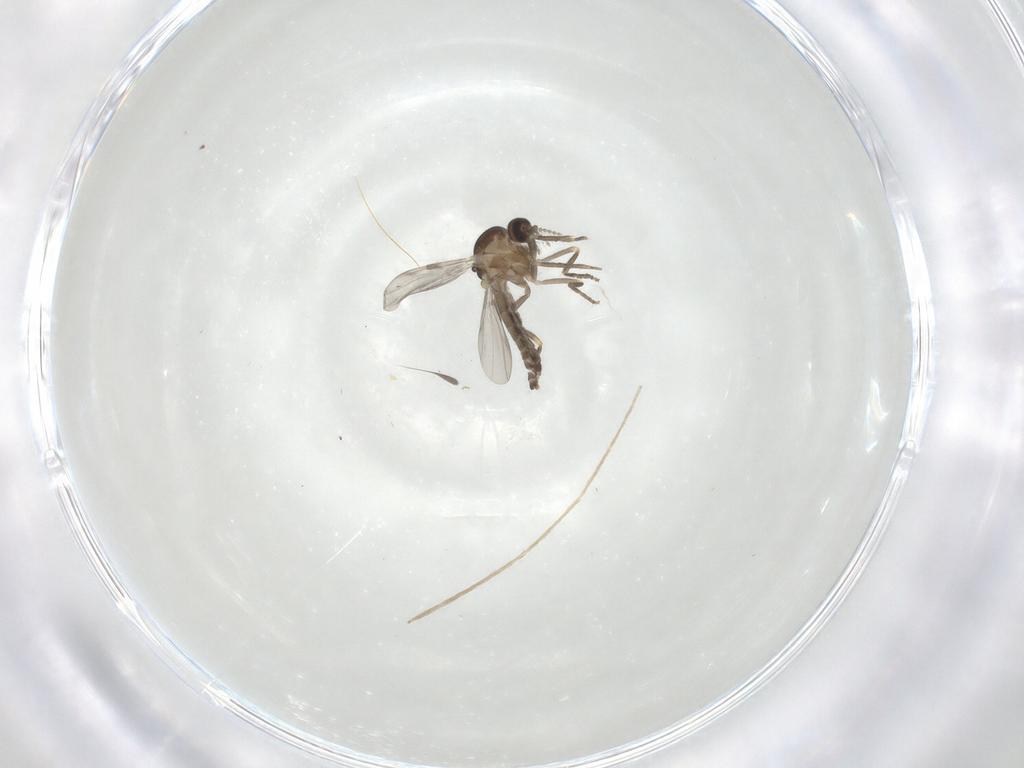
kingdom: Animalia
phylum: Arthropoda
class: Insecta
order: Diptera
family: Ceratopogonidae
